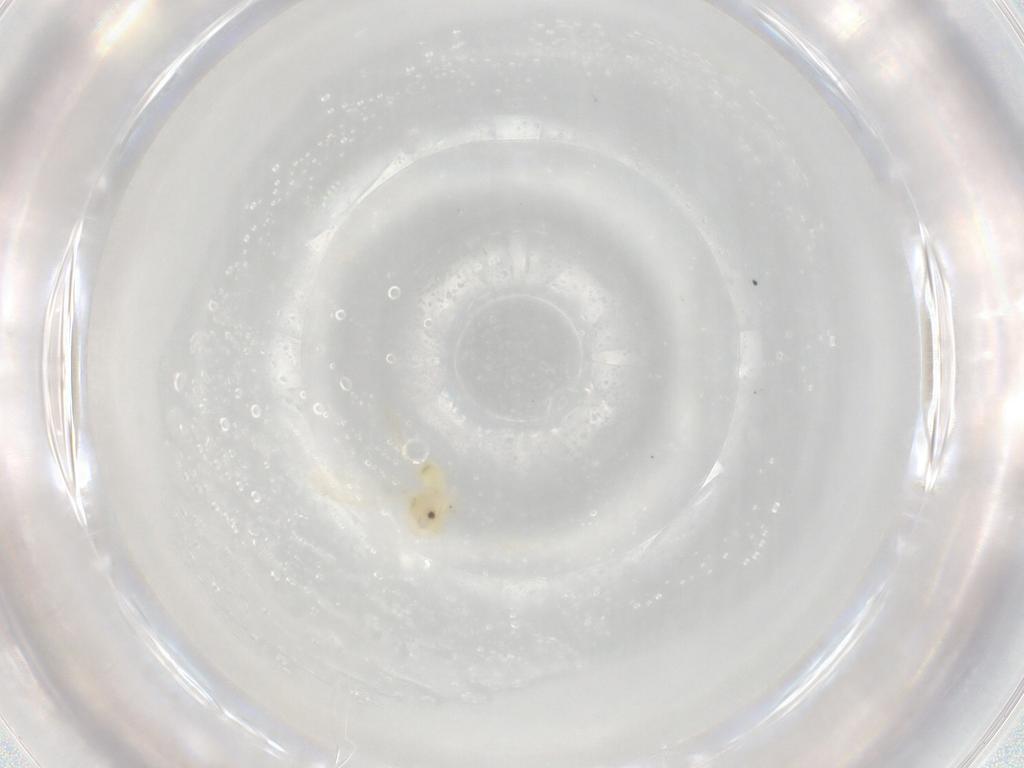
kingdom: Animalia
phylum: Arthropoda
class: Insecta
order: Hemiptera
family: Aleyrodidae
